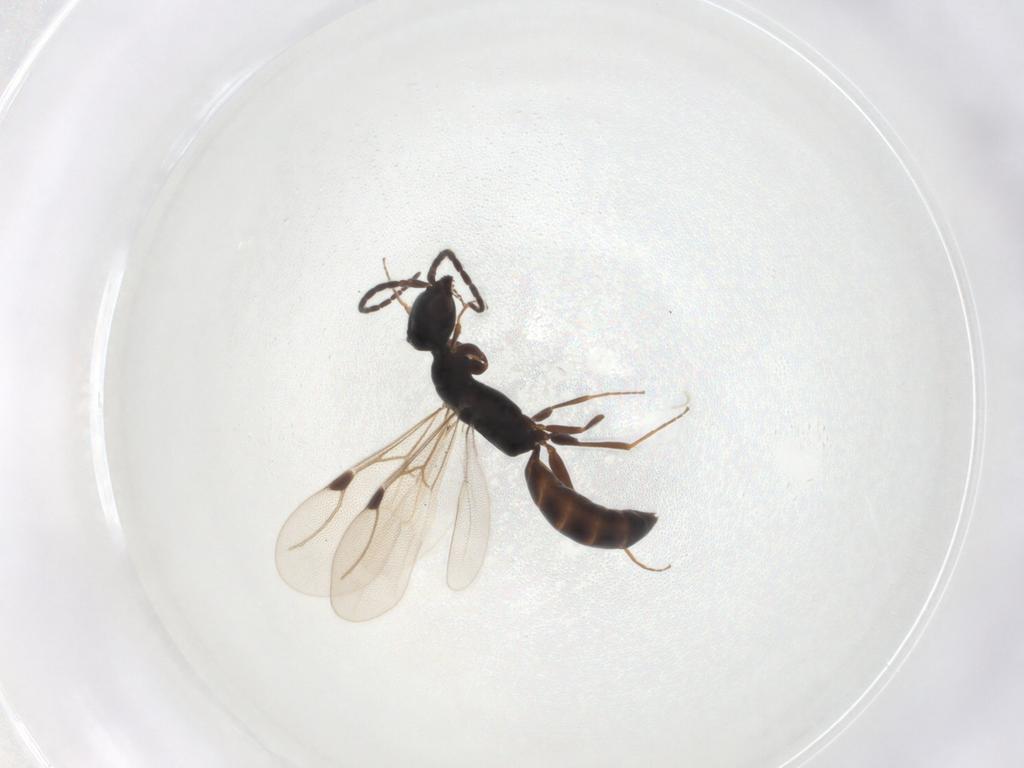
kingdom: Animalia
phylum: Arthropoda
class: Insecta
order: Hymenoptera
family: Bethylidae
